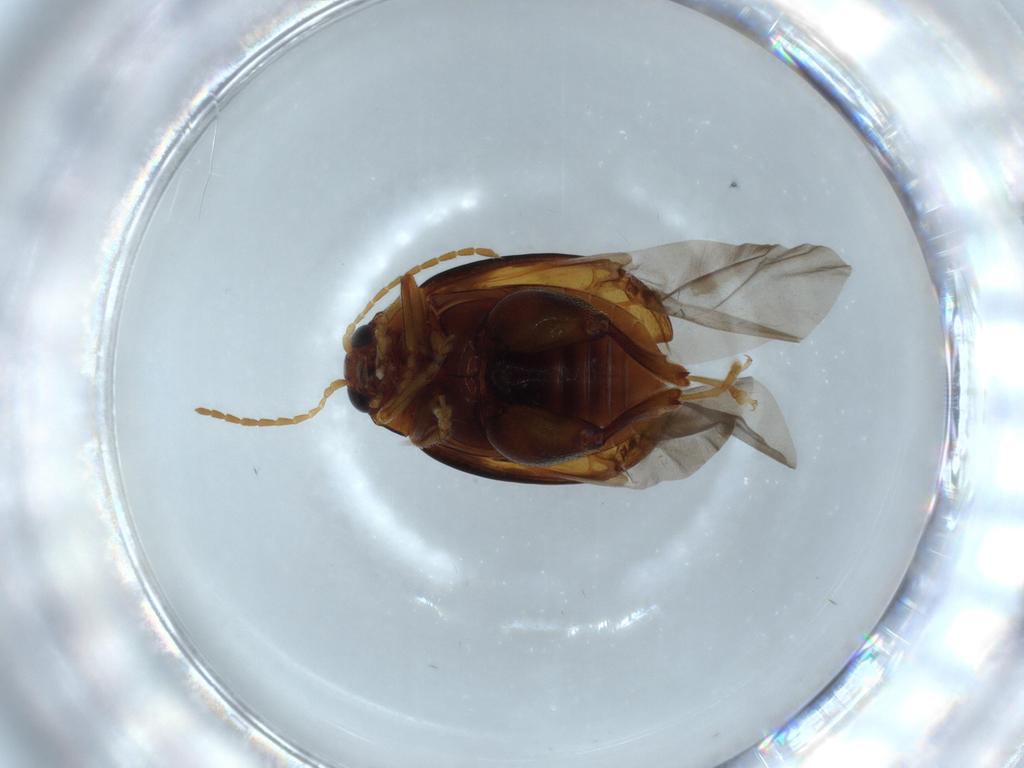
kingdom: Animalia
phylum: Arthropoda
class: Insecta
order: Coleoptera
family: Chrysomelidae
